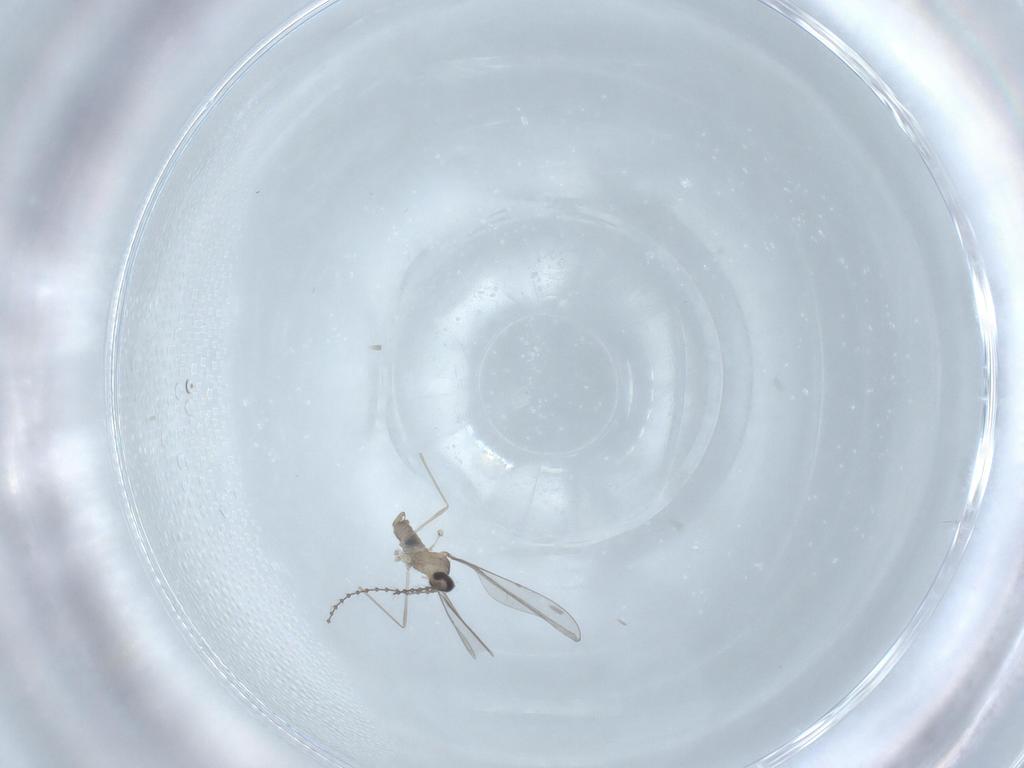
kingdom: Animalia
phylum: Arthropoda
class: Insecta
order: Diptera
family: Cecidomyiidae
